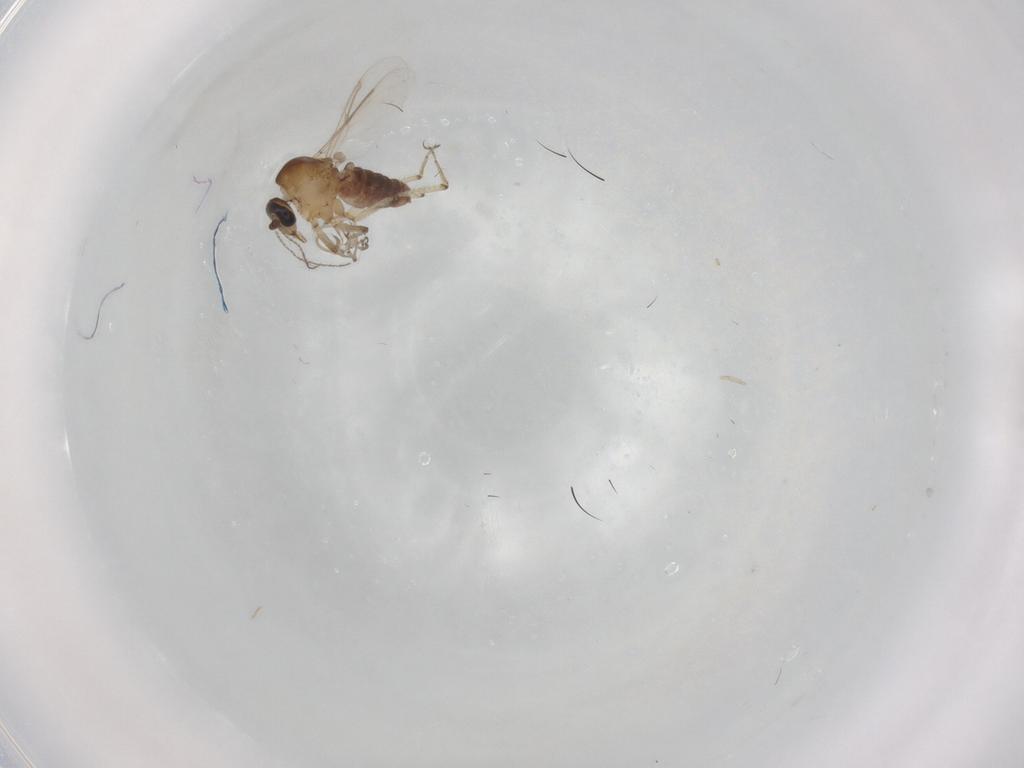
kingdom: Animalia
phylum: Arthropoda
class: Insecta
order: Diptera
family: Ceratopogonidae
